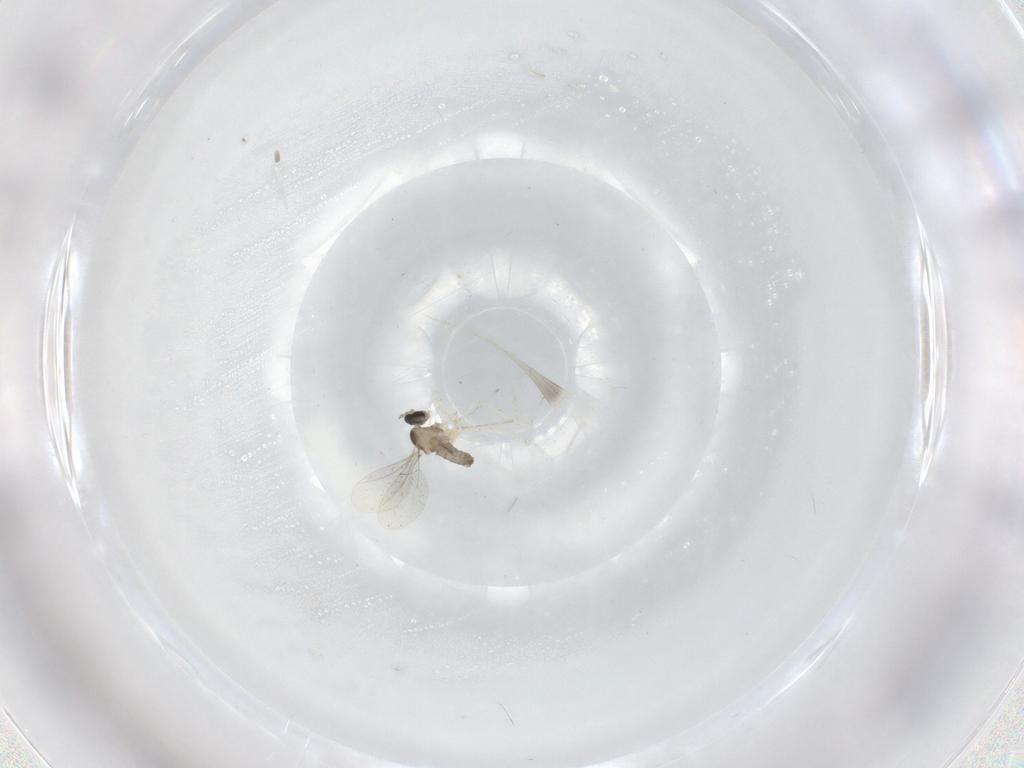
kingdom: Animalia
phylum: Arthropoda
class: Insecta
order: Diptera
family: Cecidomyiidae
